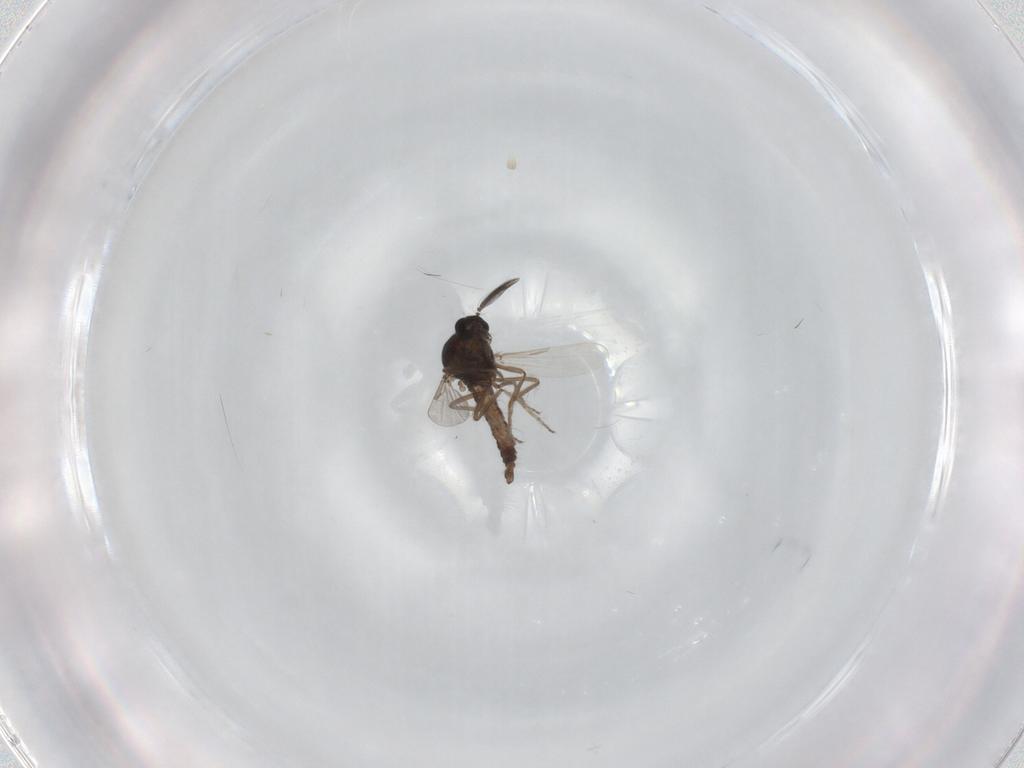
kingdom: Animalia
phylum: Arthropoda
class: Insecta
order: Diptera
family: Ceratopogonidae
